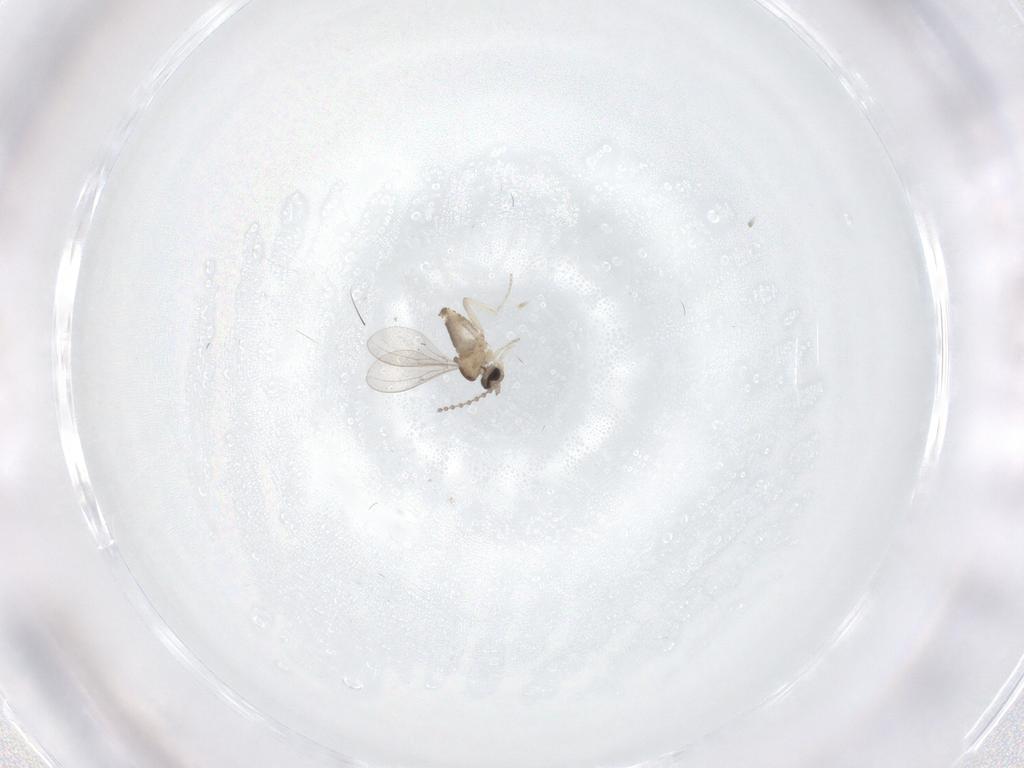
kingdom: Animalia
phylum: Arthropoda
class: Insecta
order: Diptera
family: Cecidomyiidae
